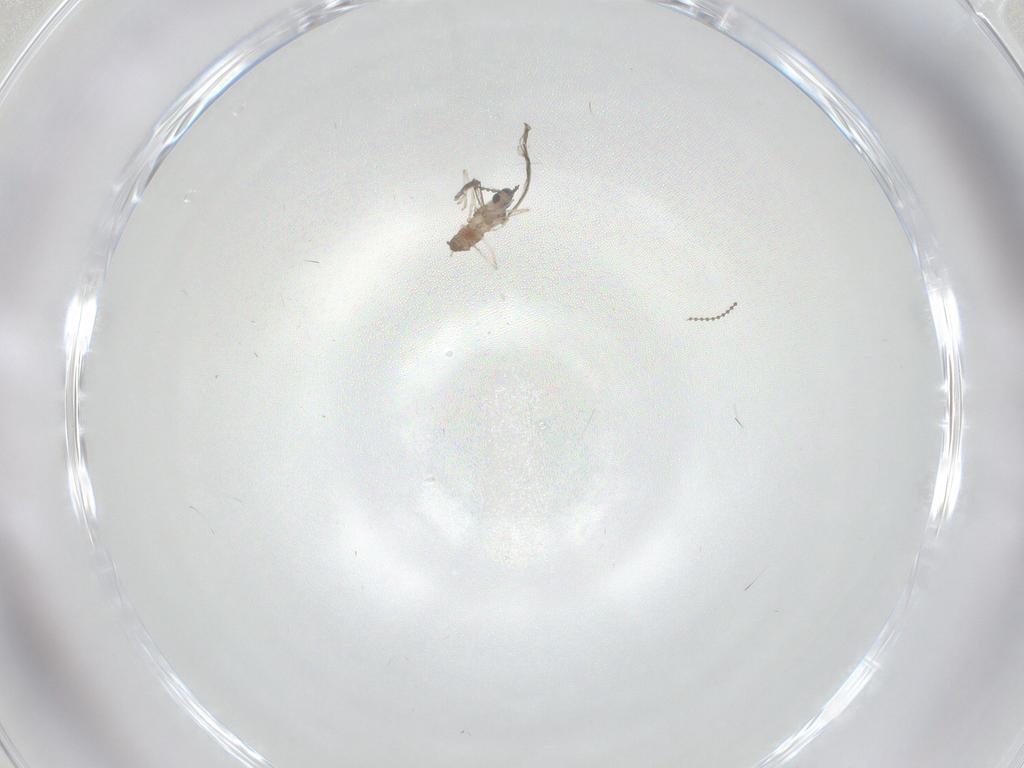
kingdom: Animalia
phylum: Arthropoda
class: Insecta
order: Diptera
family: Cecidomyiidae
